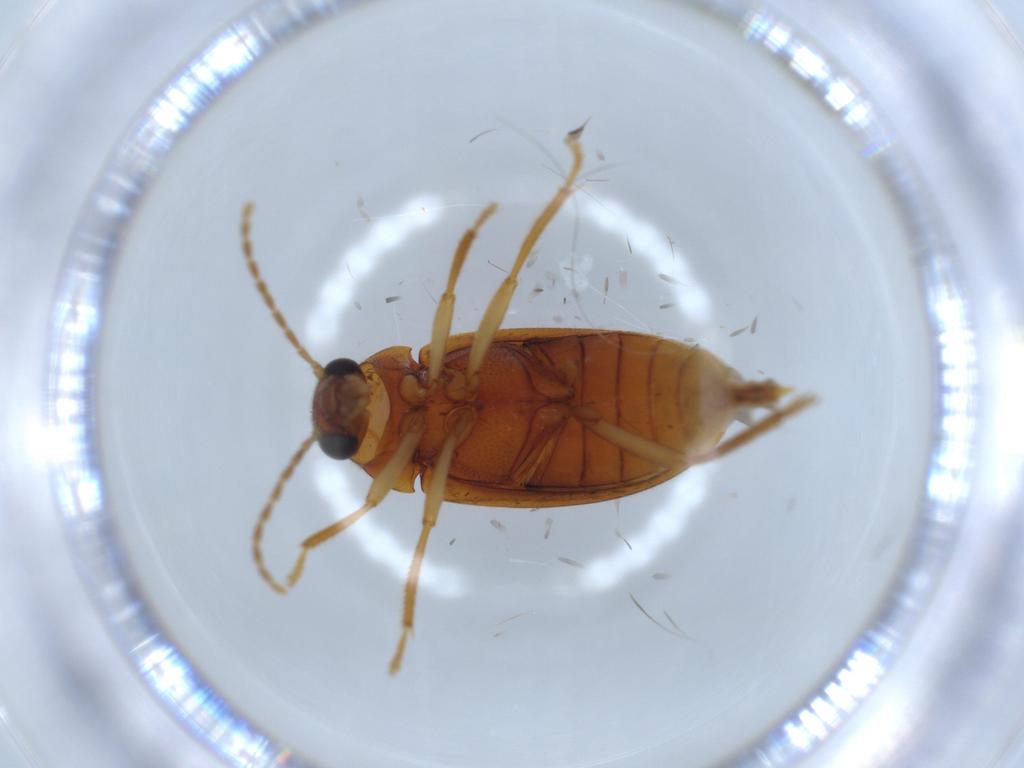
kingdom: Animalia
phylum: Arthropoda
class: Insecta
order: Coleoptera
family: Ptilodactylidae
